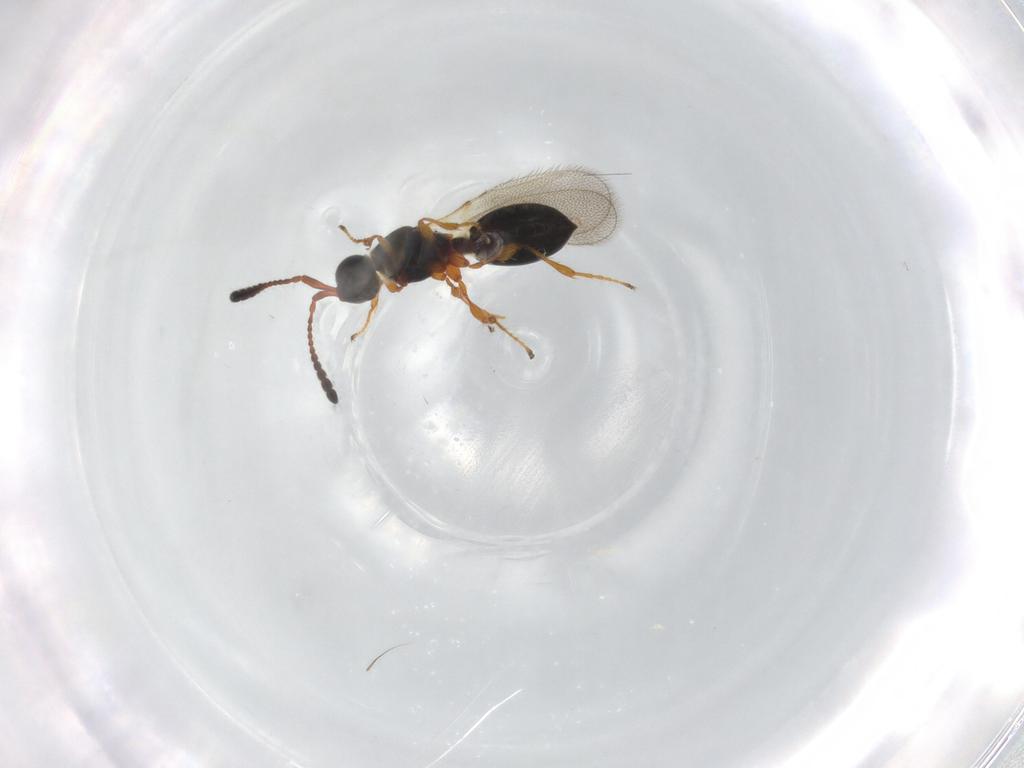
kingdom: Animalia
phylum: Arthropoda
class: Insecta
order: Hymenoptera
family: Diapriidae
